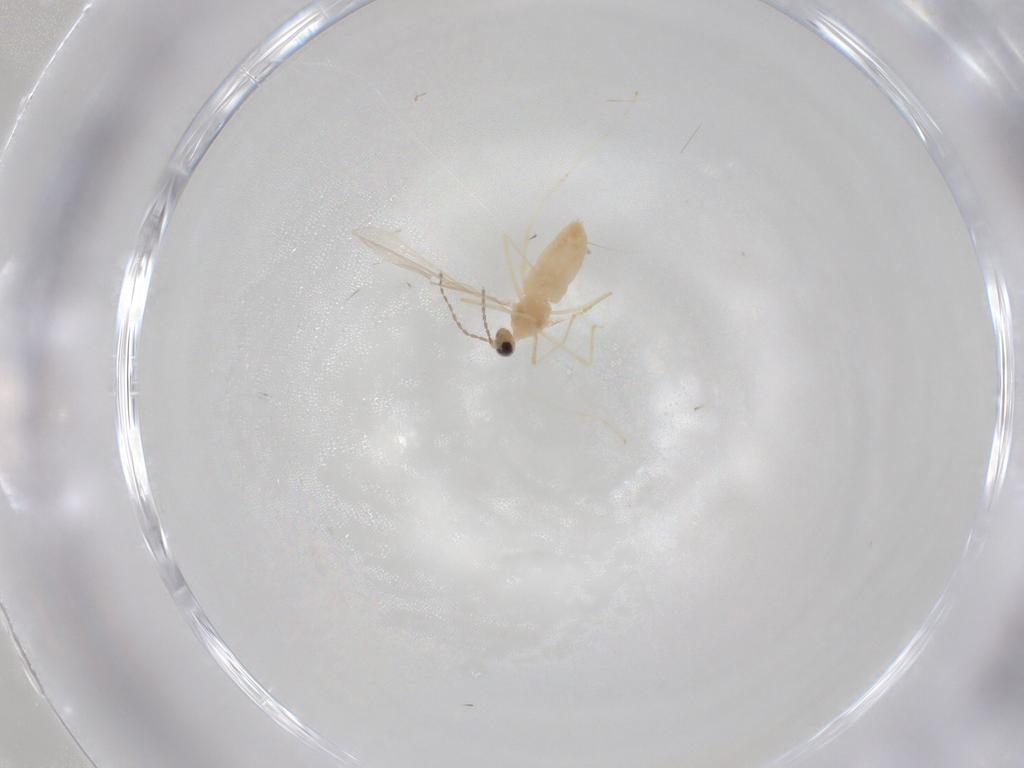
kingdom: Animalia
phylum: Arthropoda
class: Insecta
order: Diptera
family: Cecidomyiidae
